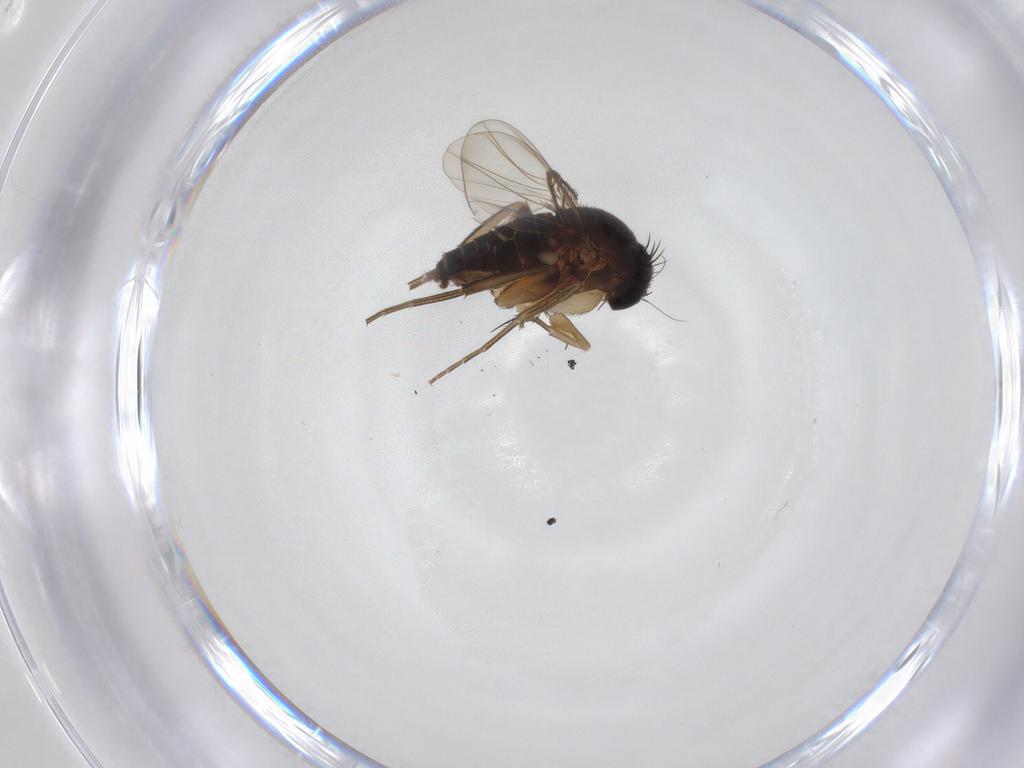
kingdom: Animalia
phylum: Arthropoda
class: Insecta
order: Diptera
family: Phoridae
